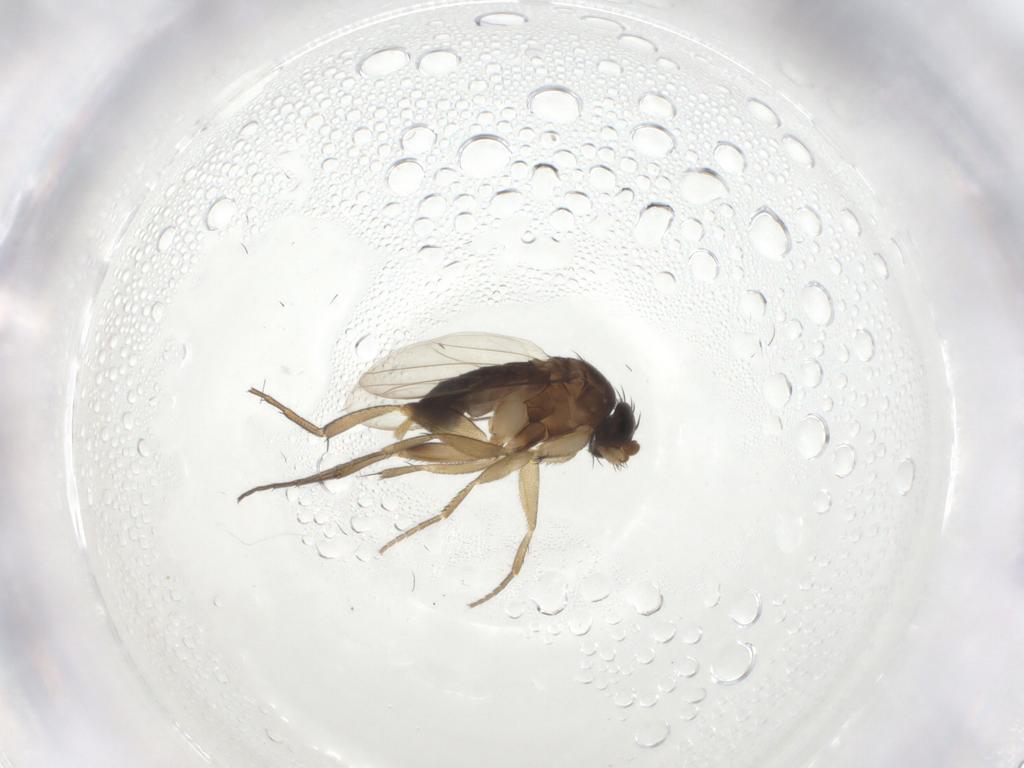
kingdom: Animalia
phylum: Arthropoda
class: Insecta
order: Diptera
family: Phoridae
